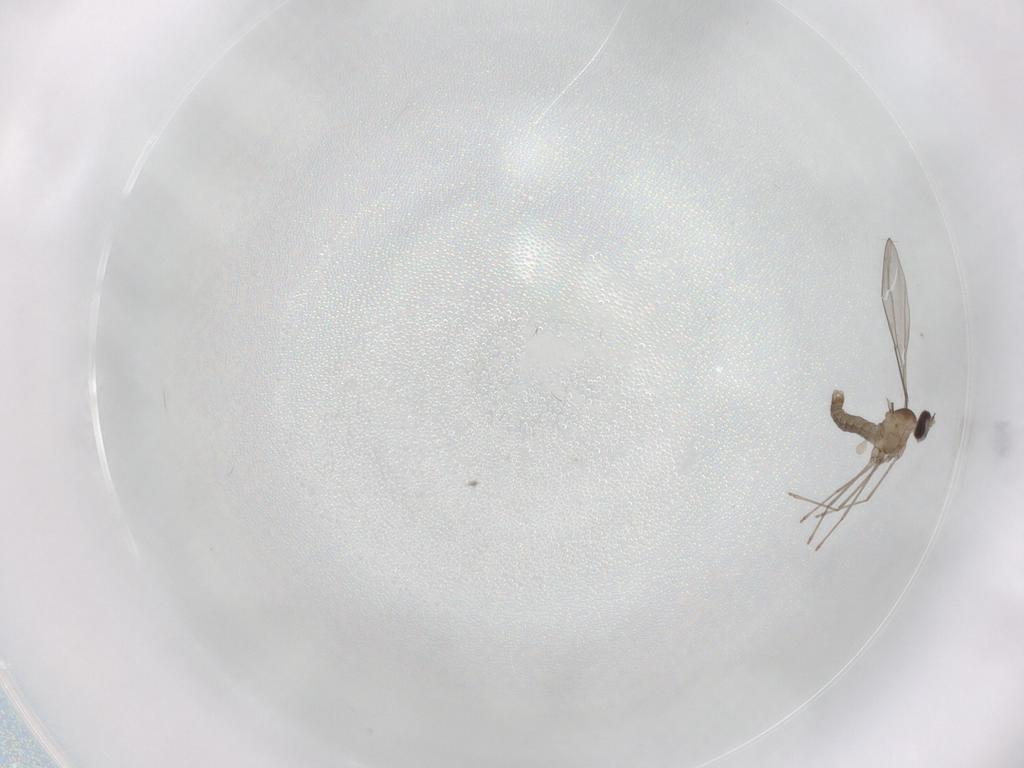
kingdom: Animalia
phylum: Arthropoda
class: Insecta
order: Diptera
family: Cecidomyiidae
